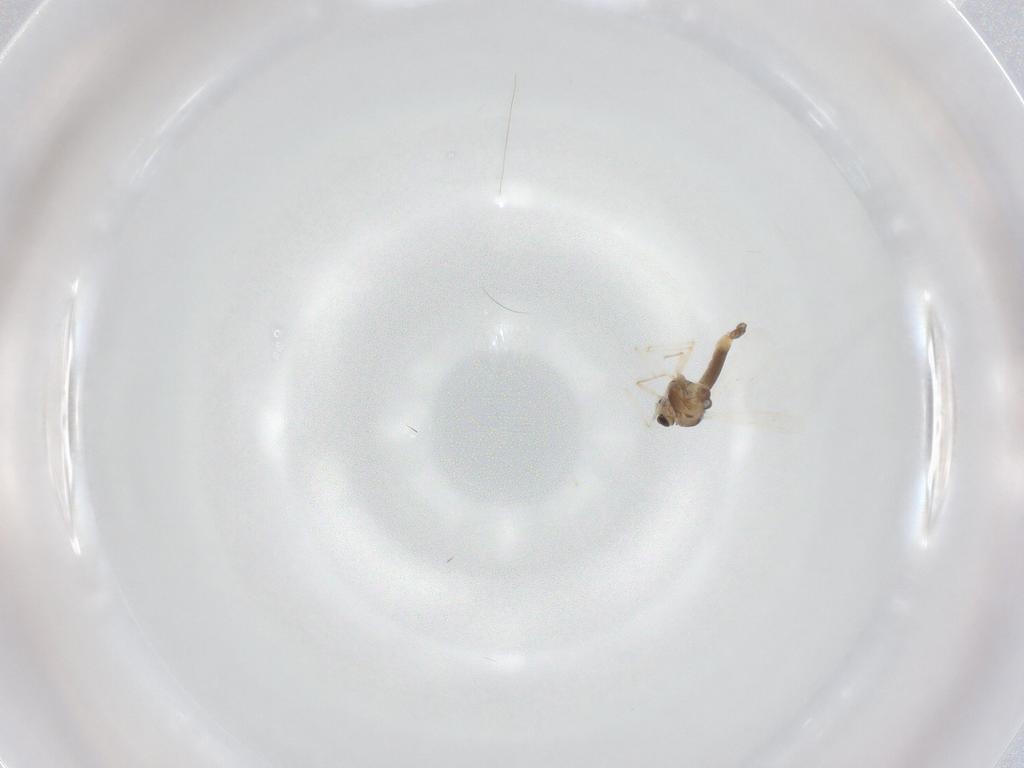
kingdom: Animalia
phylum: Arthropoda
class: Insecta
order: Diptera
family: Chironomidae
